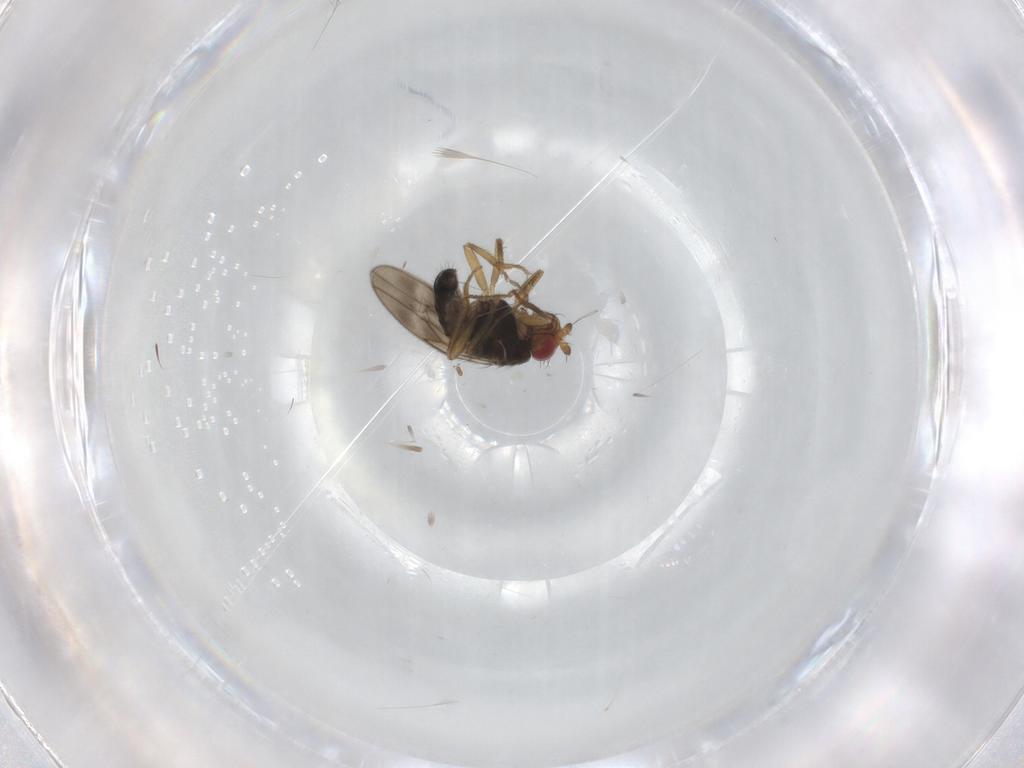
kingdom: Animalia
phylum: Arthropoda
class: Insecta
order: Diptera
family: Sphaeroceridae
